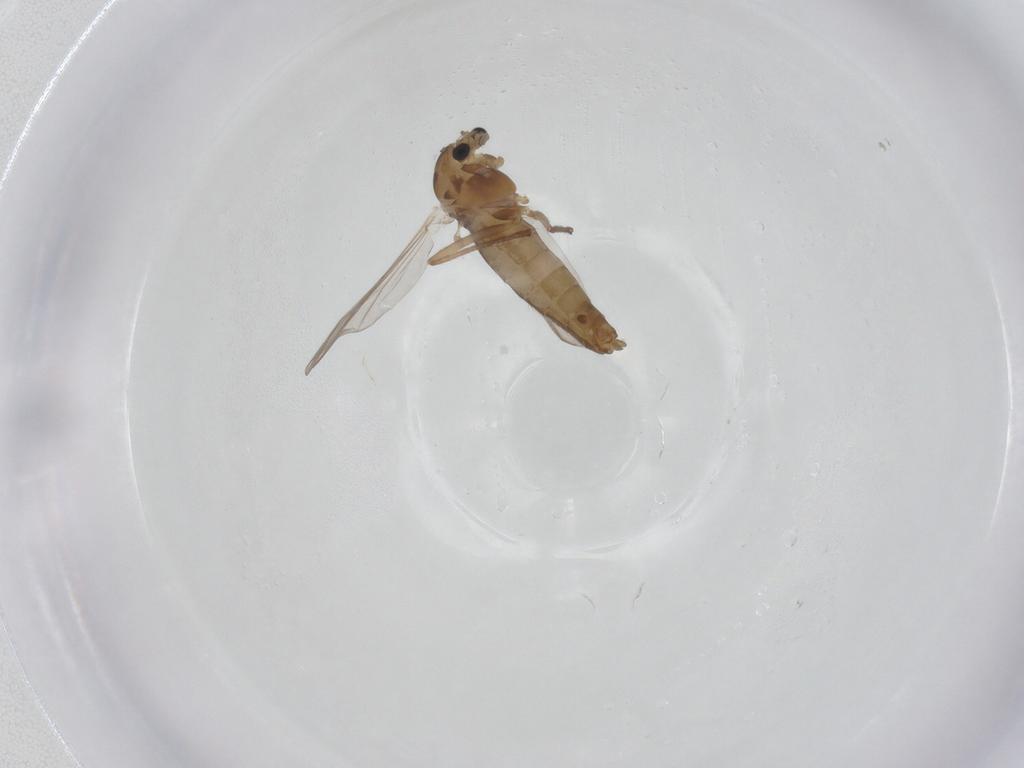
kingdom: Animalia
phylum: Arthropoda
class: Insecta
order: Diptera
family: Chironomidae
